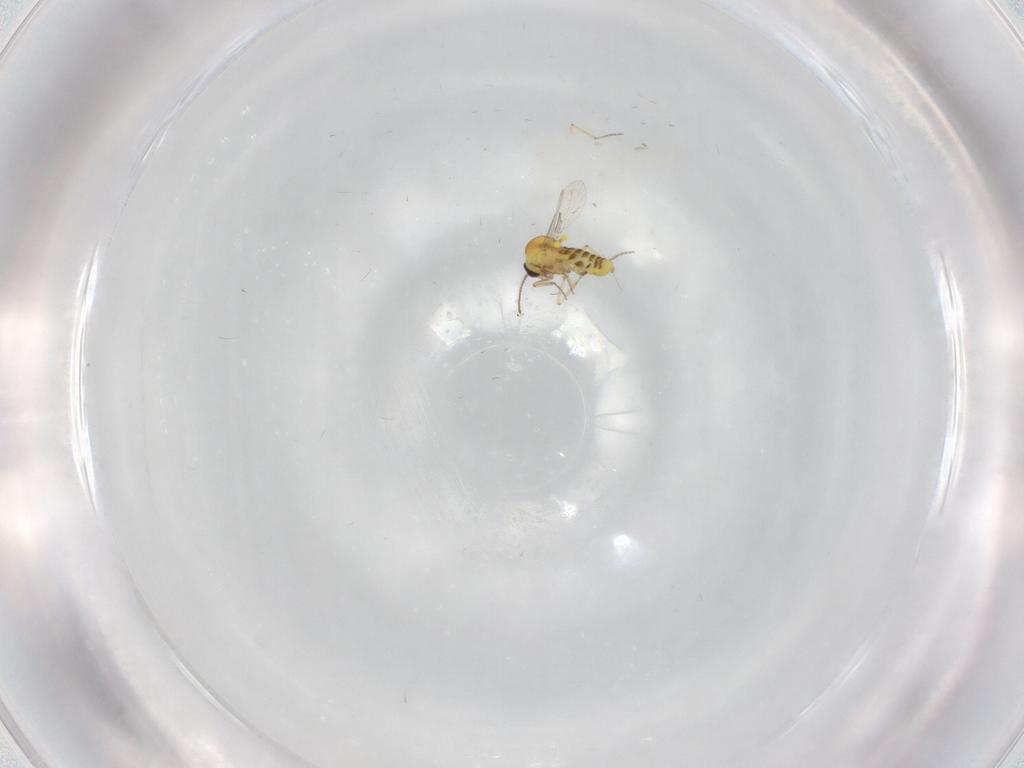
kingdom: Animalia
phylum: Arthropoda
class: Insecta
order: Diptera
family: Ceratopogonidae
